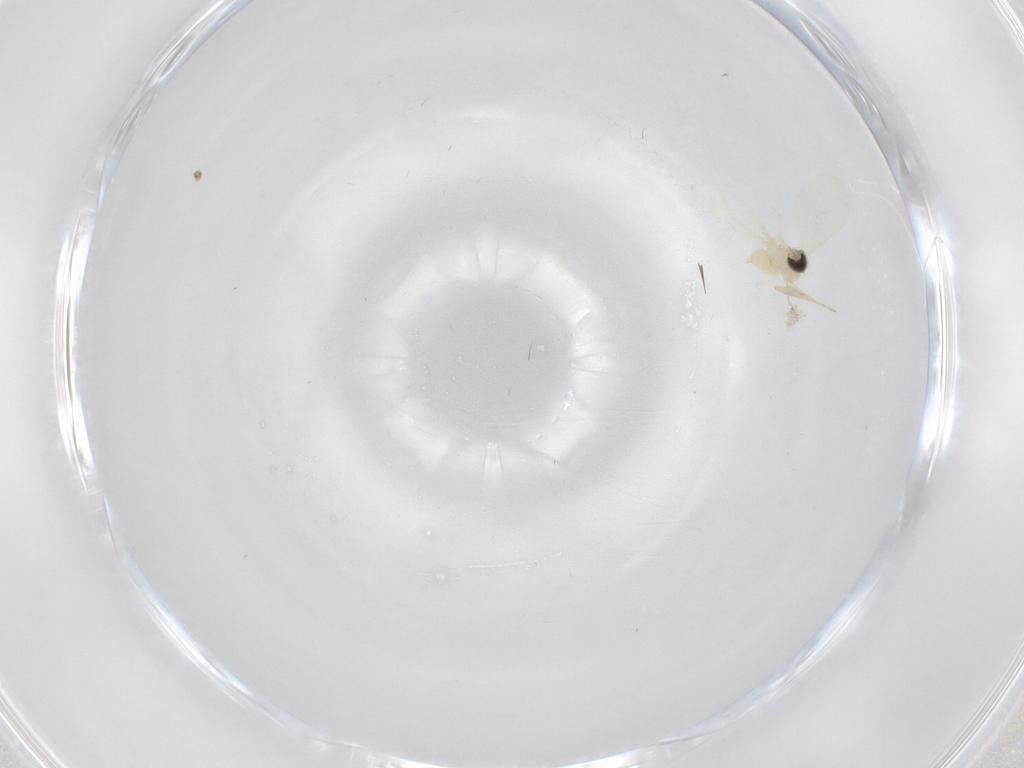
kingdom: Animalia
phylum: Arthropoda
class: Insecta
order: Diptera
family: Cecidomyiidae
